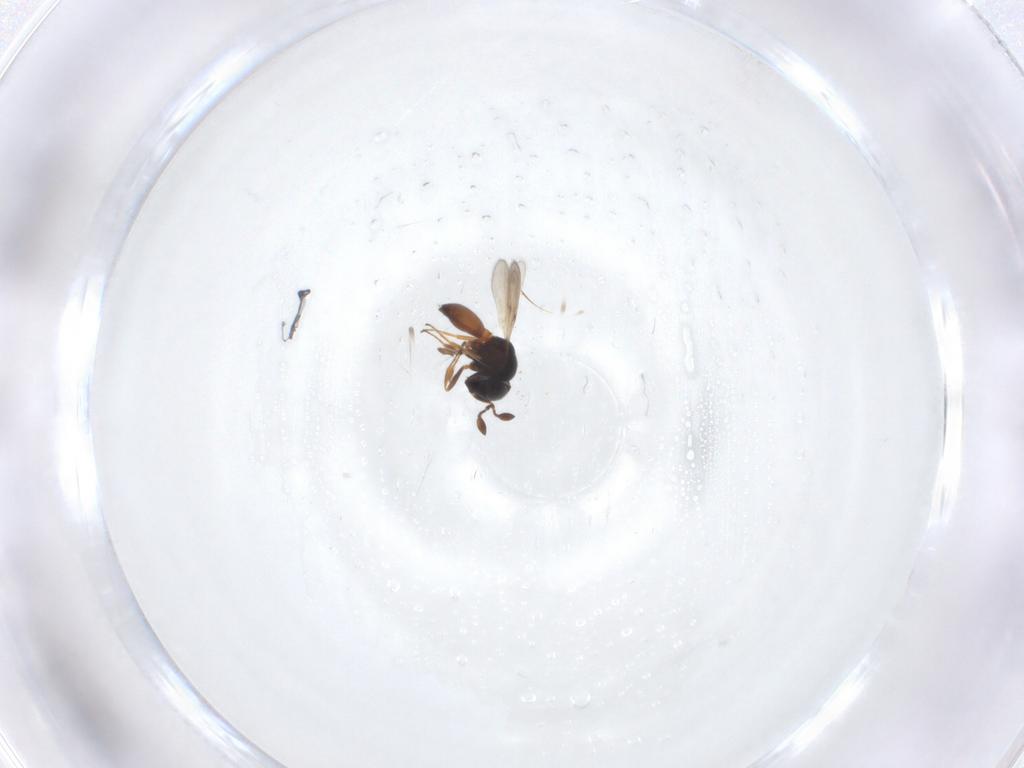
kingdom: Animalia
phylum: Arthropoda
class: Insecta
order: Hymenoptera
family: Scelionidae
